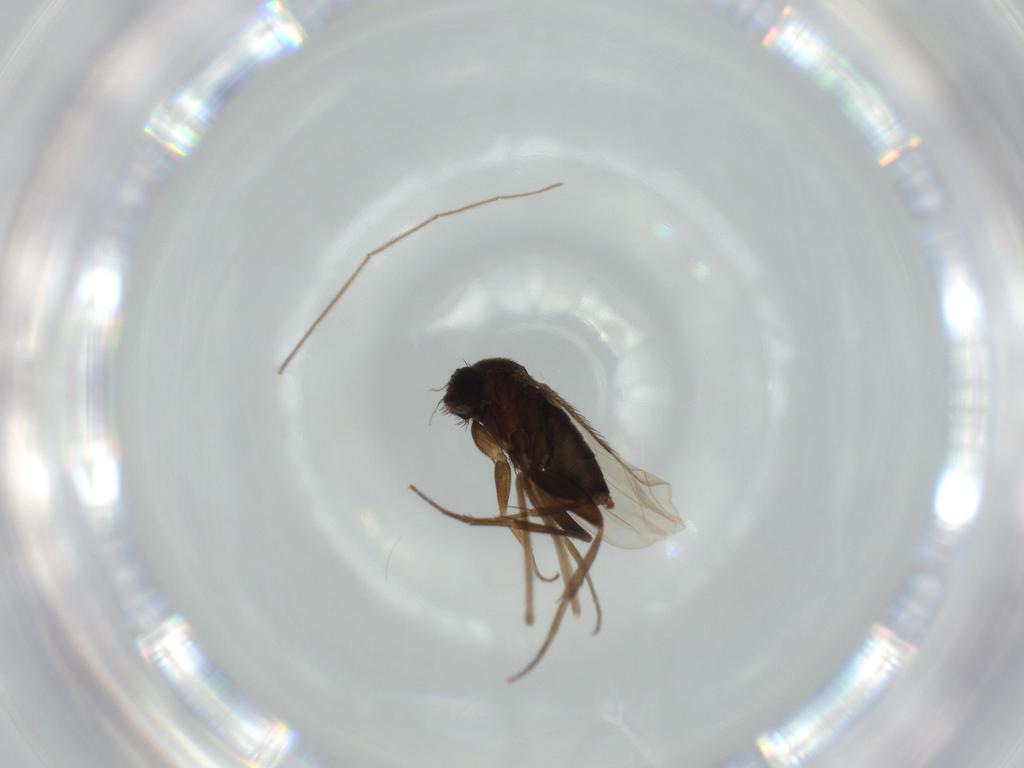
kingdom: Animalia
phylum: Arthropoda
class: Insecta
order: Diptera
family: Phoridae
